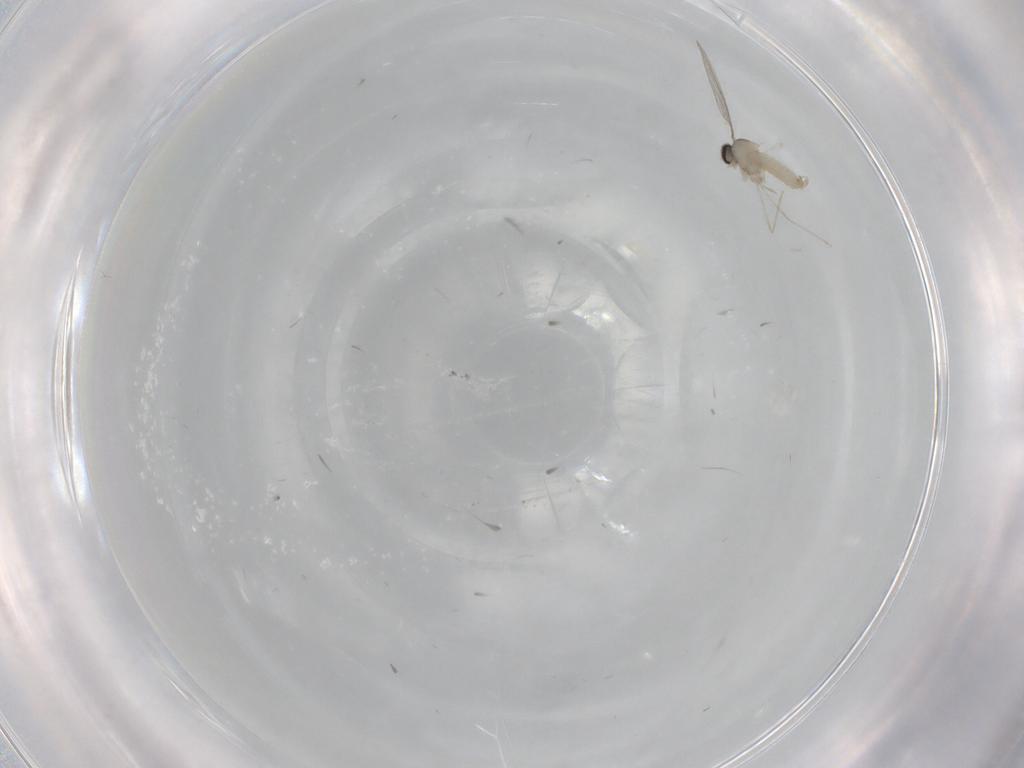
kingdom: Animalia
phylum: Arthropoda
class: Insecta
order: Diptera
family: Cecidomyiidae
